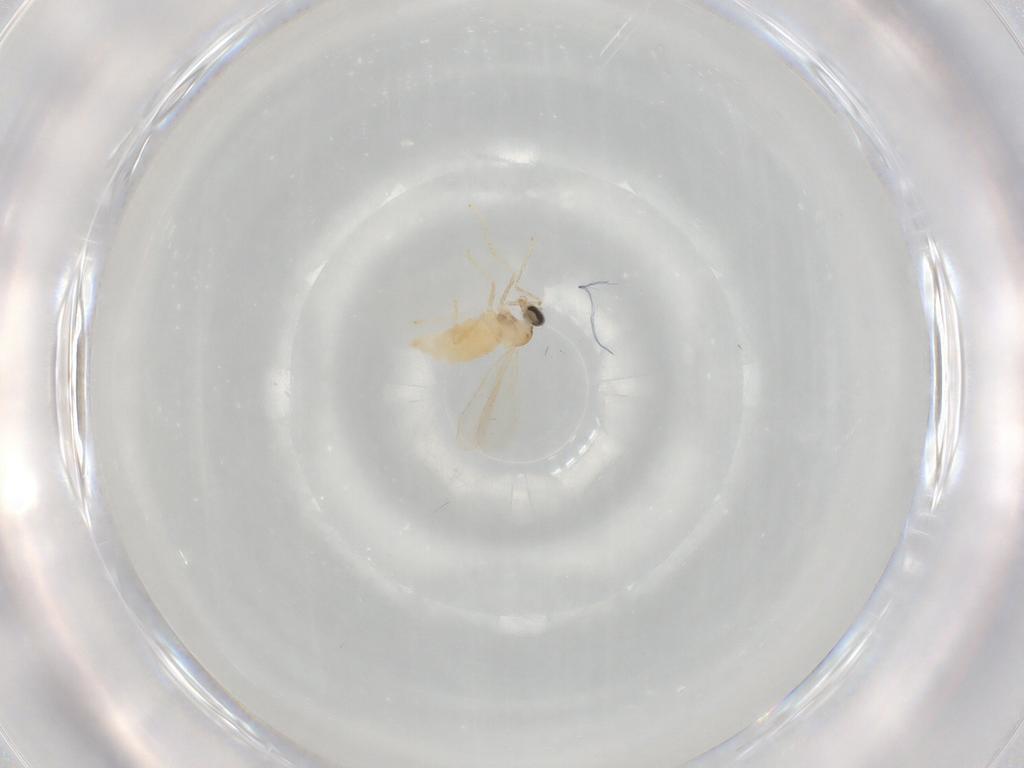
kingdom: Animalia
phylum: Arthropoda
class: Insecta
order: Diptera
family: Cecidomyiidae
